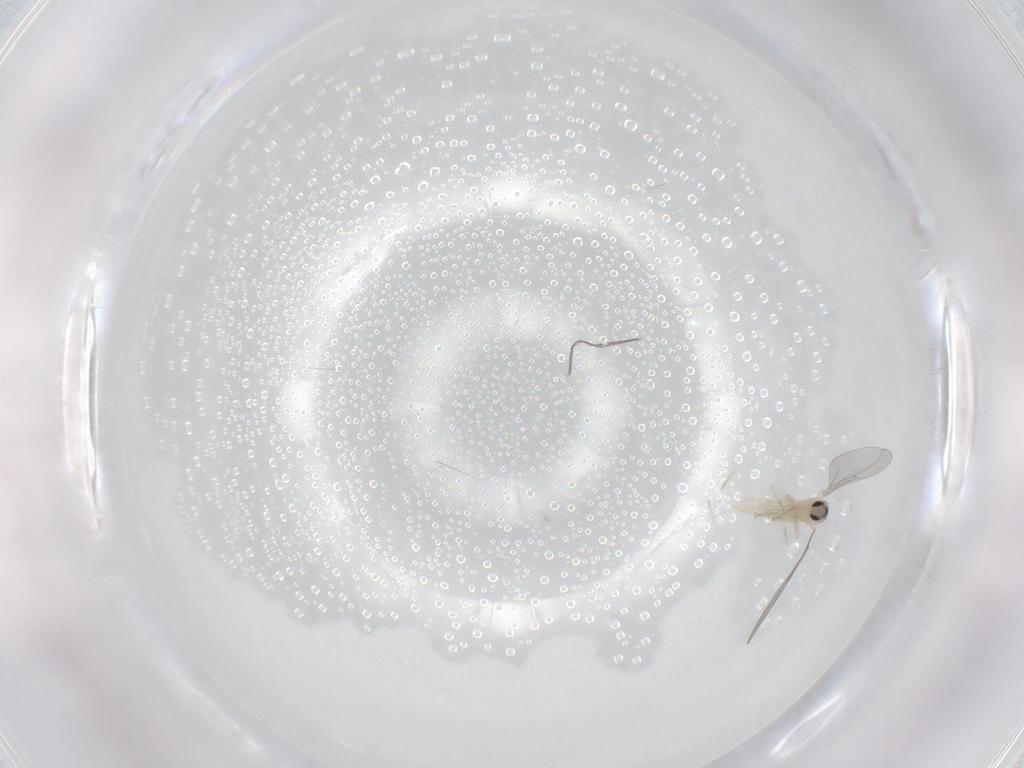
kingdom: Animalia
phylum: Arthropoda
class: Insecta
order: Diptera
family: Cecidomyiidae
